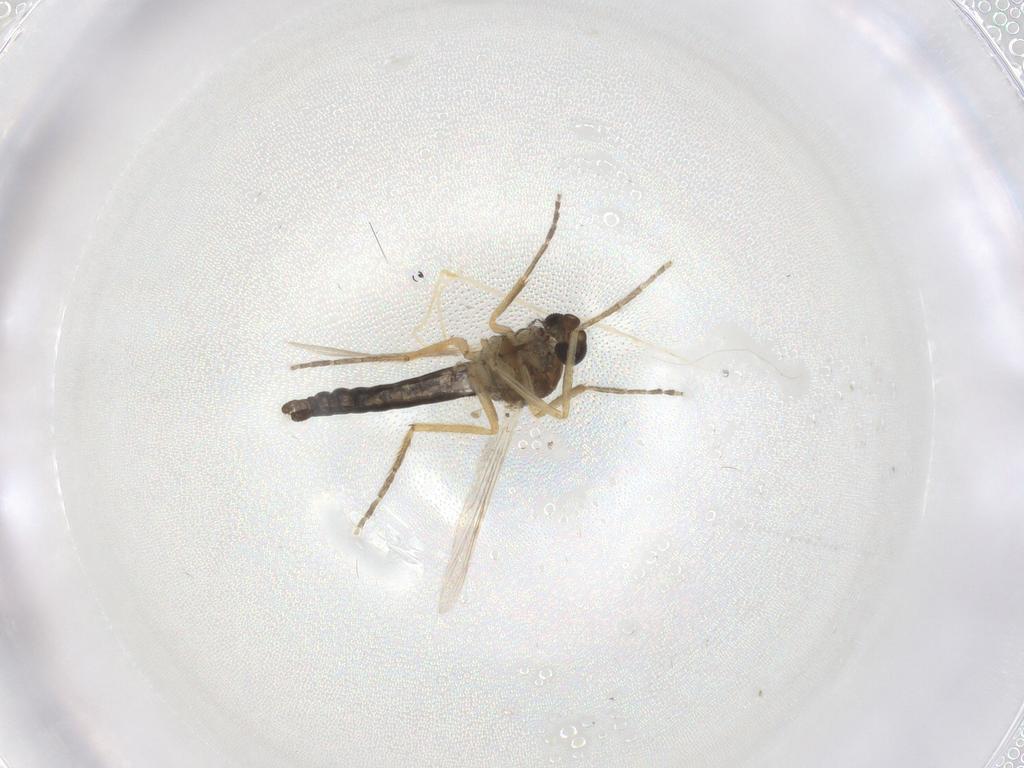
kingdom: Animalia
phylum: Arthropoda
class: Insecta
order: Diptera
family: Ceratopogonidae
